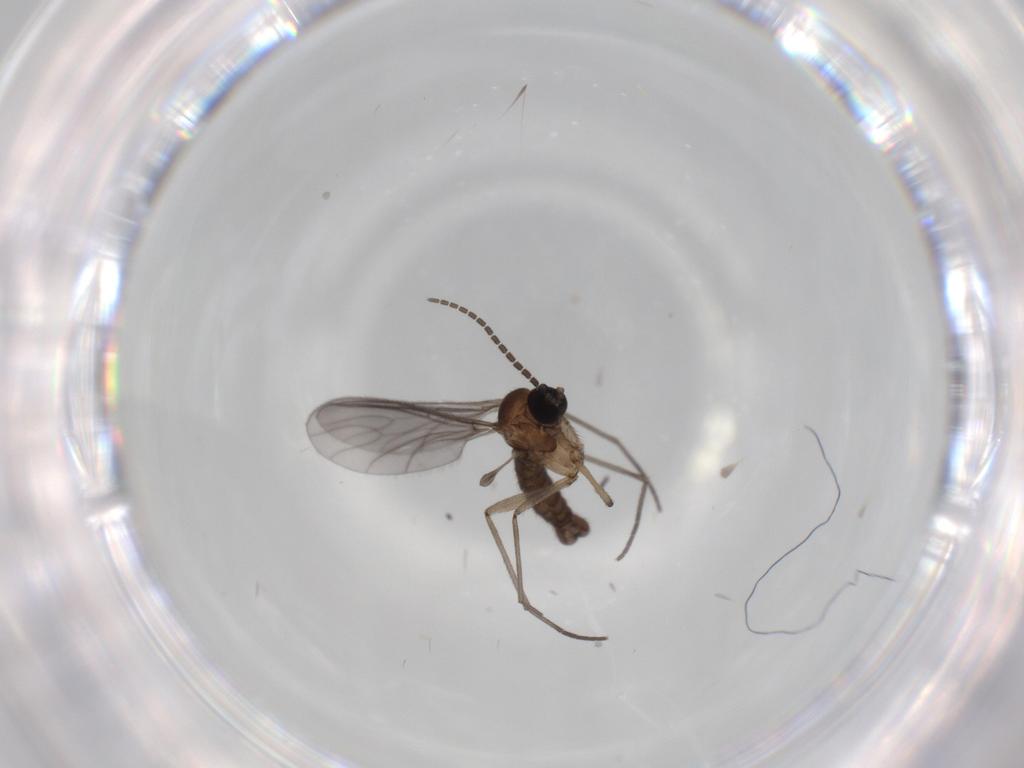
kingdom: Animalia
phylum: Arthropoda
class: Insecta
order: Diptera
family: Sciaridae
